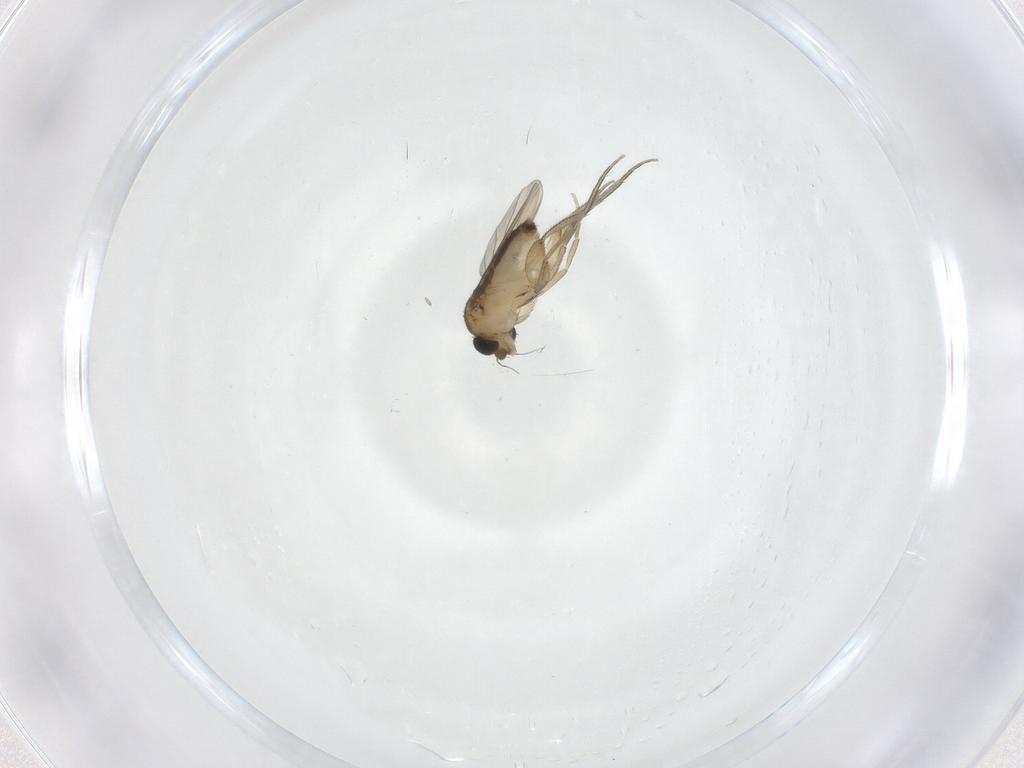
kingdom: Animalia
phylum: Arthropoda
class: Insecta
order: Diptera
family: Phoridae
